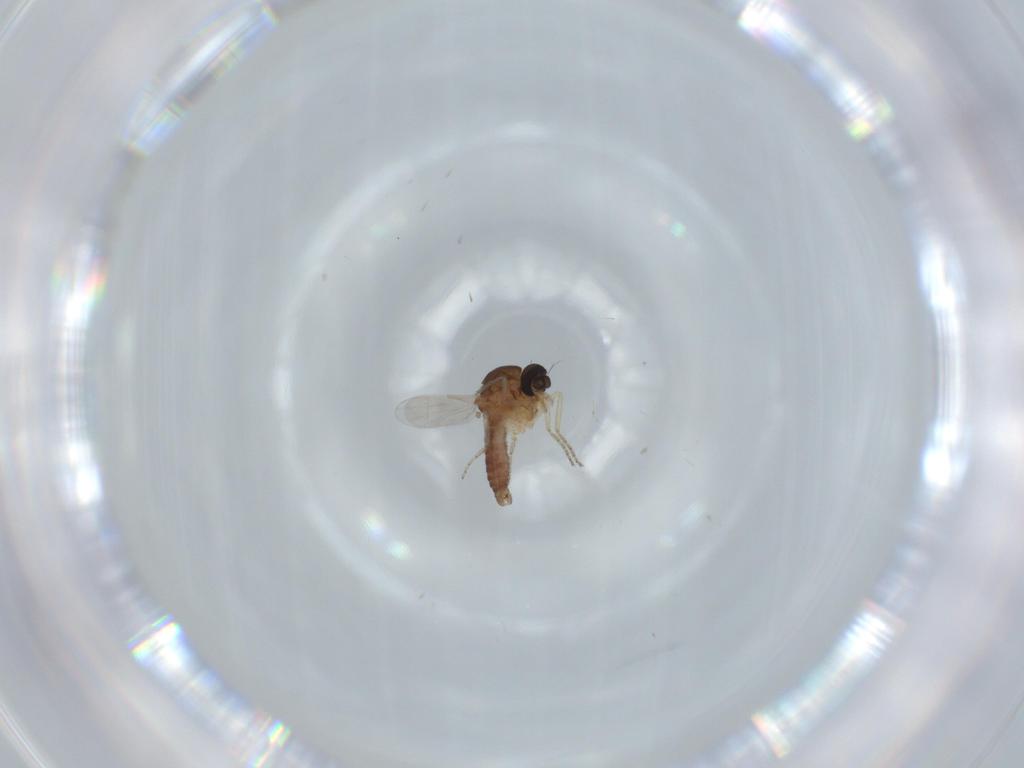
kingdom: Animalia
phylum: Arthropoda
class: Insecta
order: Diptera
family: Ceratopogonidae
